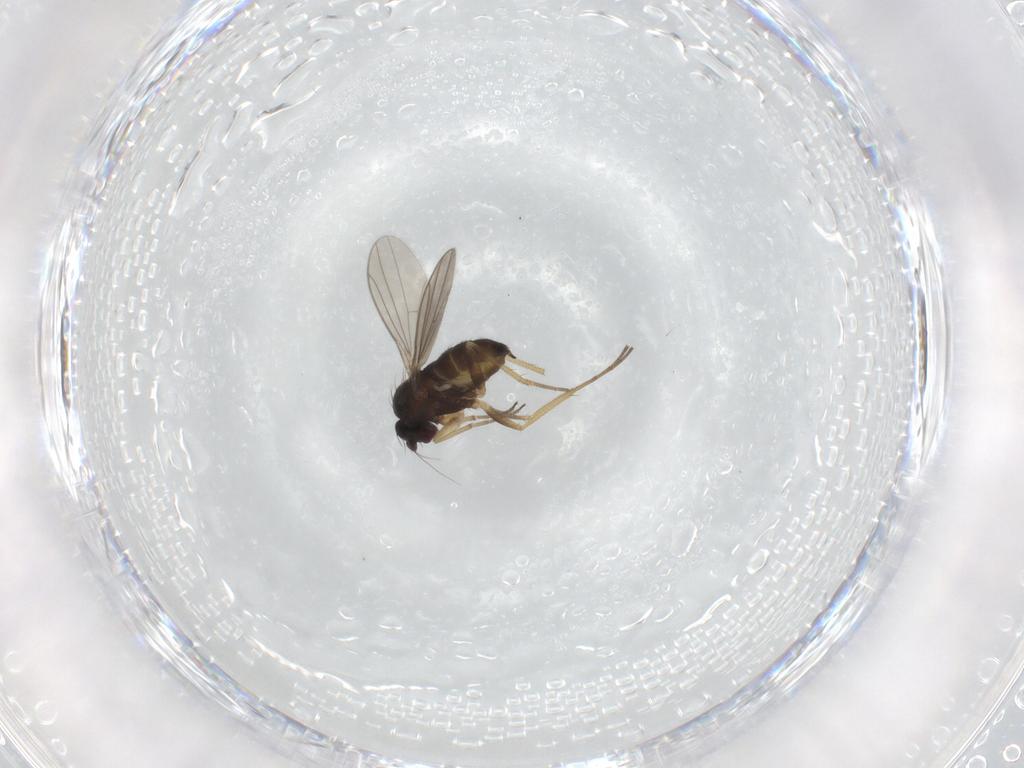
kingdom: Animalia
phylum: Arthropoda
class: Insecta
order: Diptera
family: Dolichopodidae
